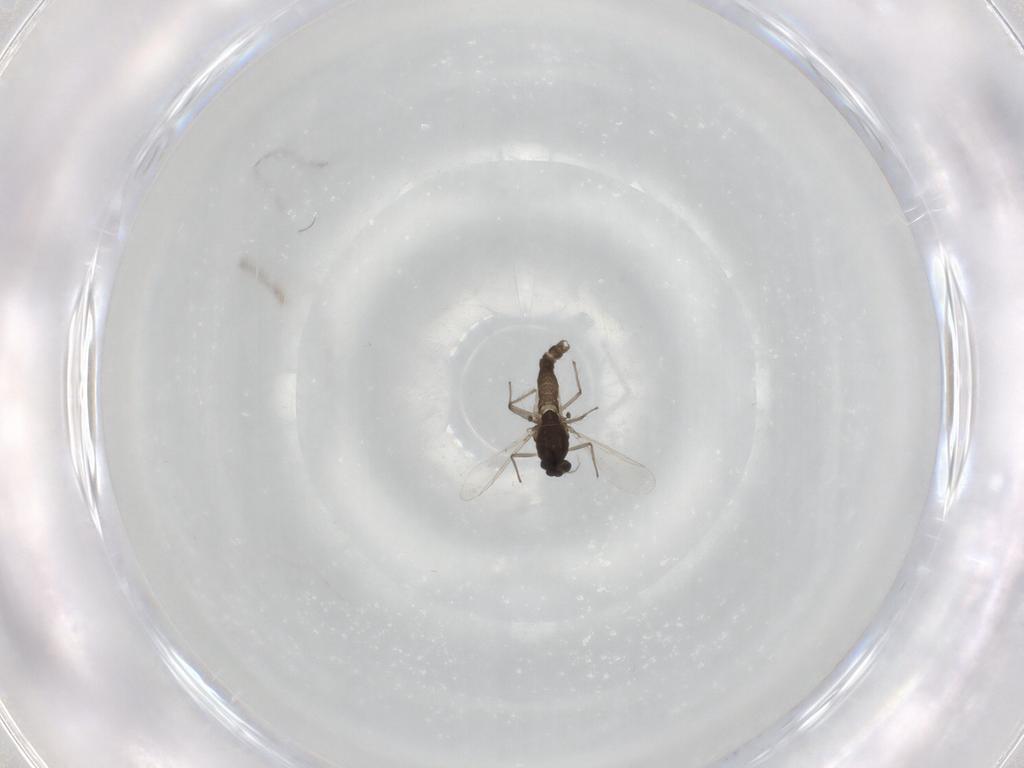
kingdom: Animalia
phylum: Arthropoda
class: Insecta
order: Diptera
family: Chironomidae
